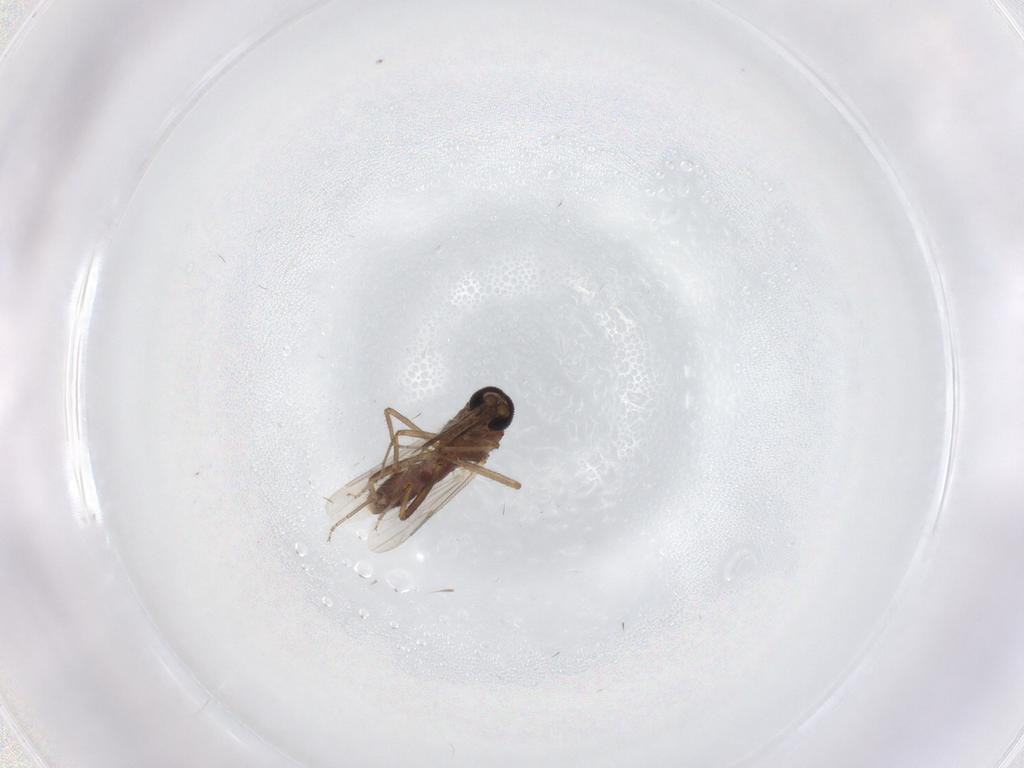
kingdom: Animalia
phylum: Arthropoda
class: Insecta
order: Diptera
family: Ceratopogonidae
